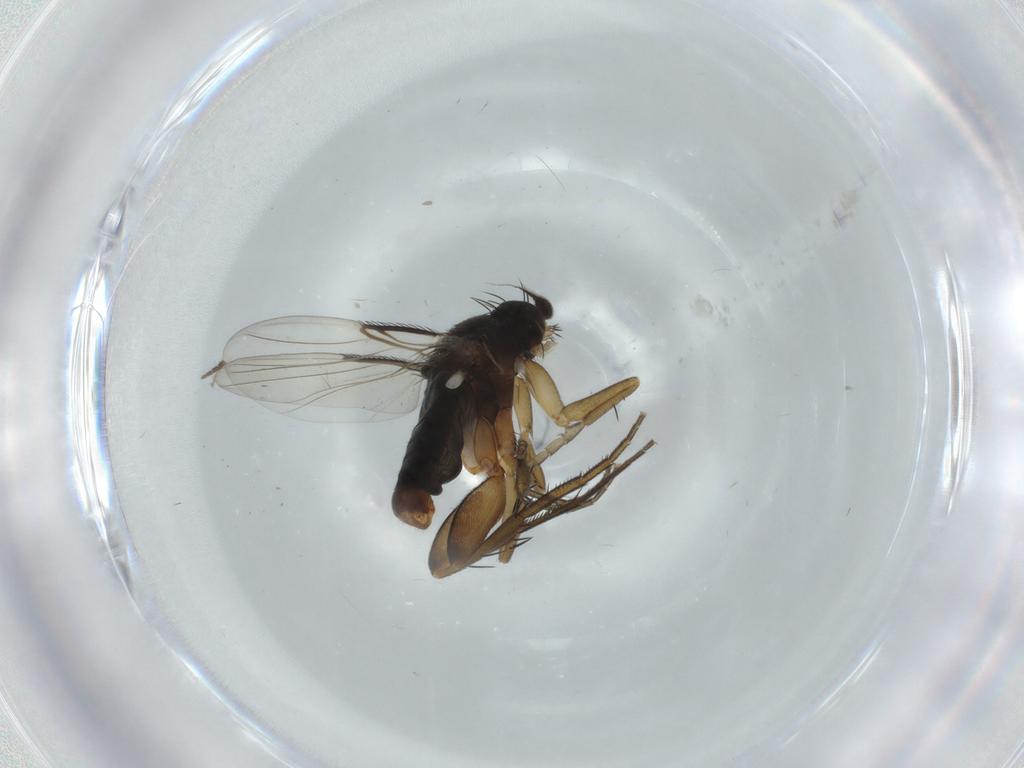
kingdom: Animalia
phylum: Arthropoda
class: Insecta
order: Diptera
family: Phoridae
